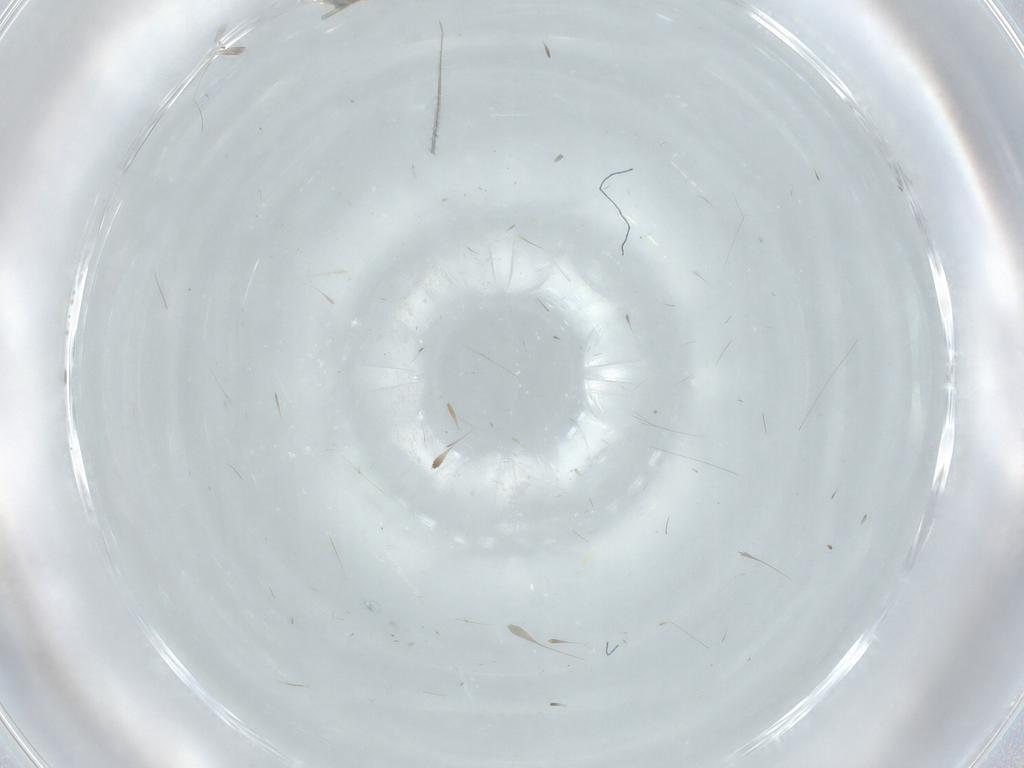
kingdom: Animalia
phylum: Arthropoda
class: Insecta
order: Diptera
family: Cecidomyiidae
